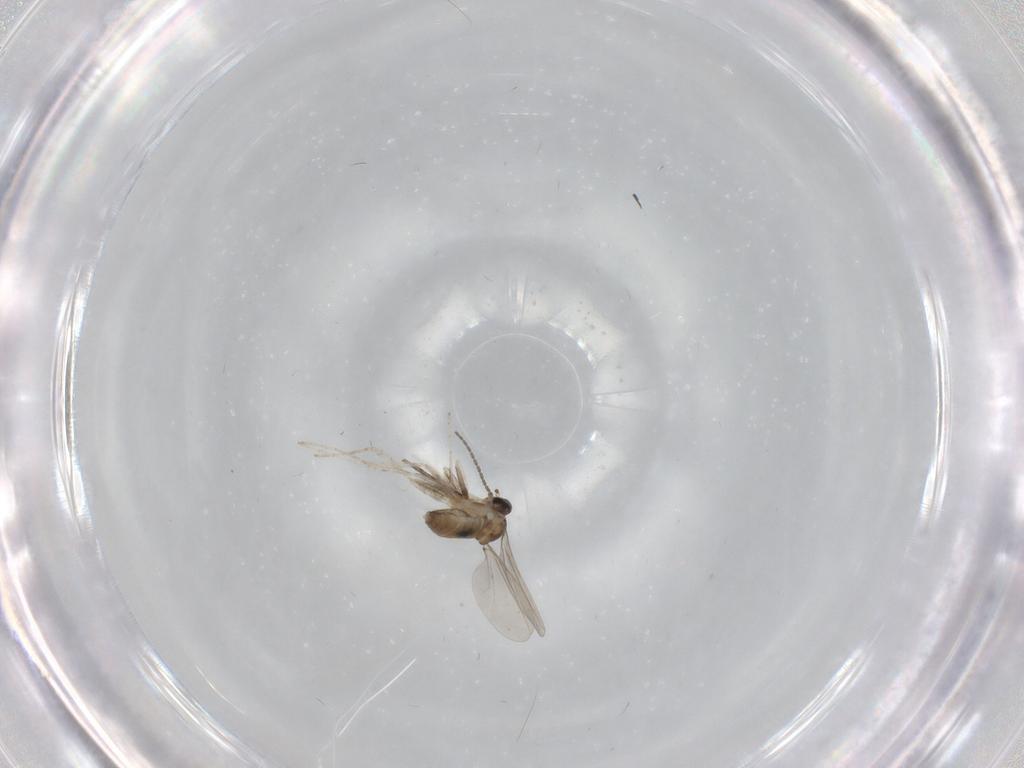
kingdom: Animalia
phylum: Arthropoda
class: Insecta
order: Diptera
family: Cecidomyiidae
